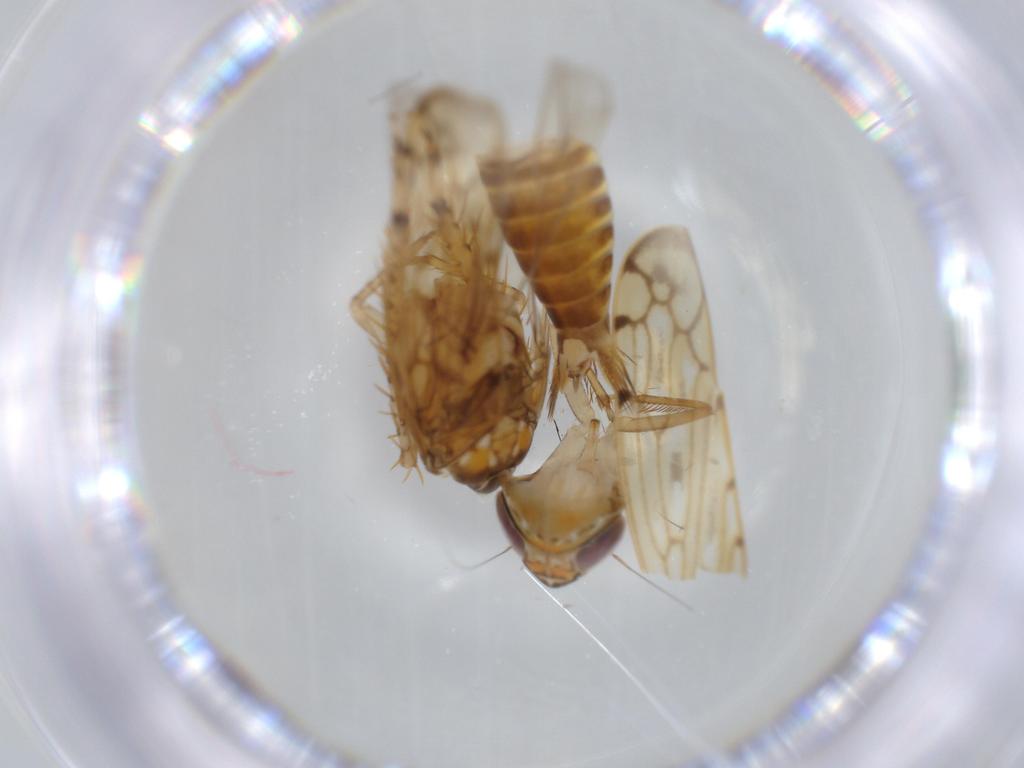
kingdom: Animalia
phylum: Arthropoda
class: Insecta
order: Hemiptera
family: Cicadellidae
